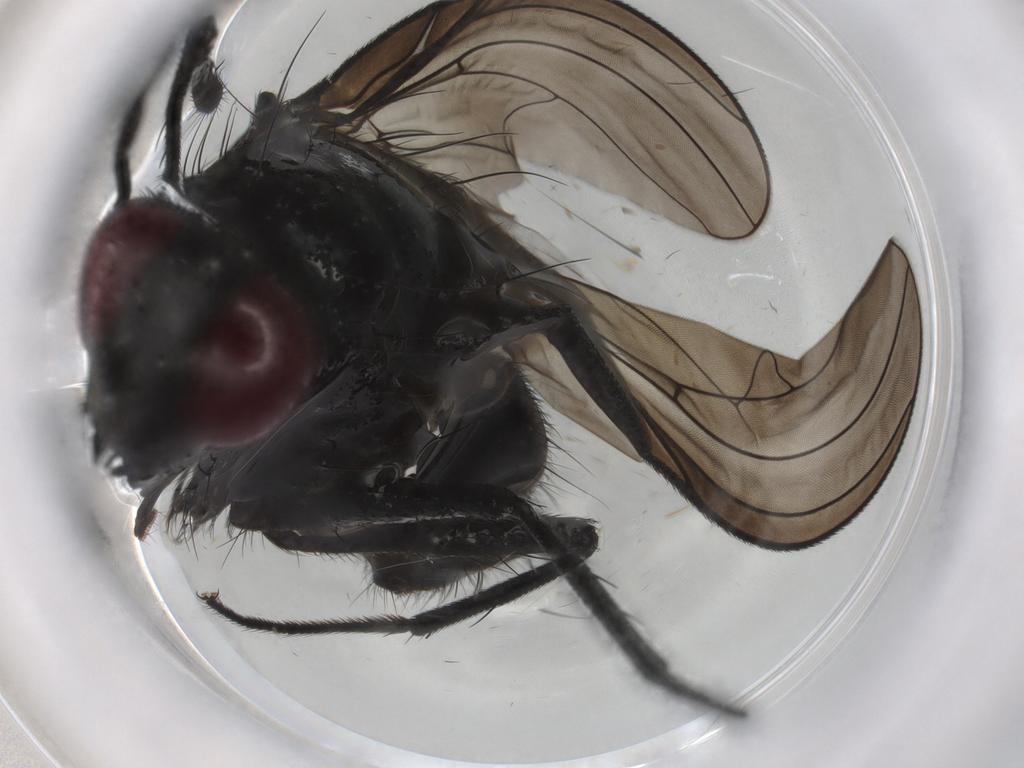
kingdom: Animalia
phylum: Arthropoda
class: Insecta
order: Diptera
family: Muscidae
